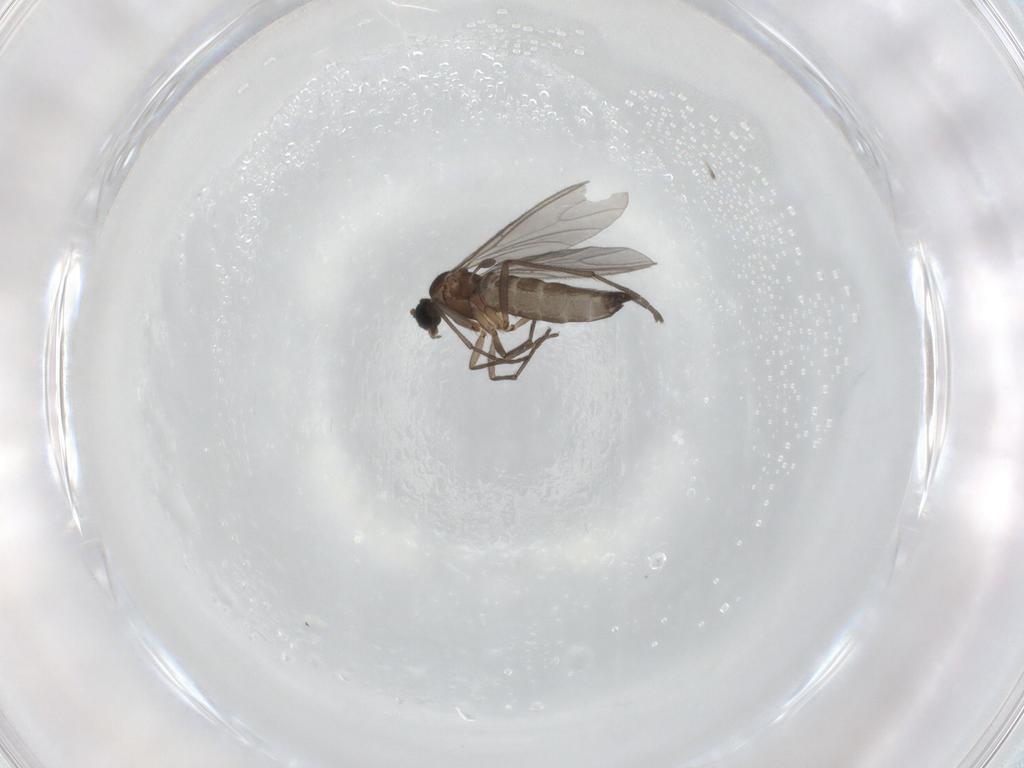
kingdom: Animalia
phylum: Arthropoda
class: Insecta
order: Diptera
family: Sciaridae
